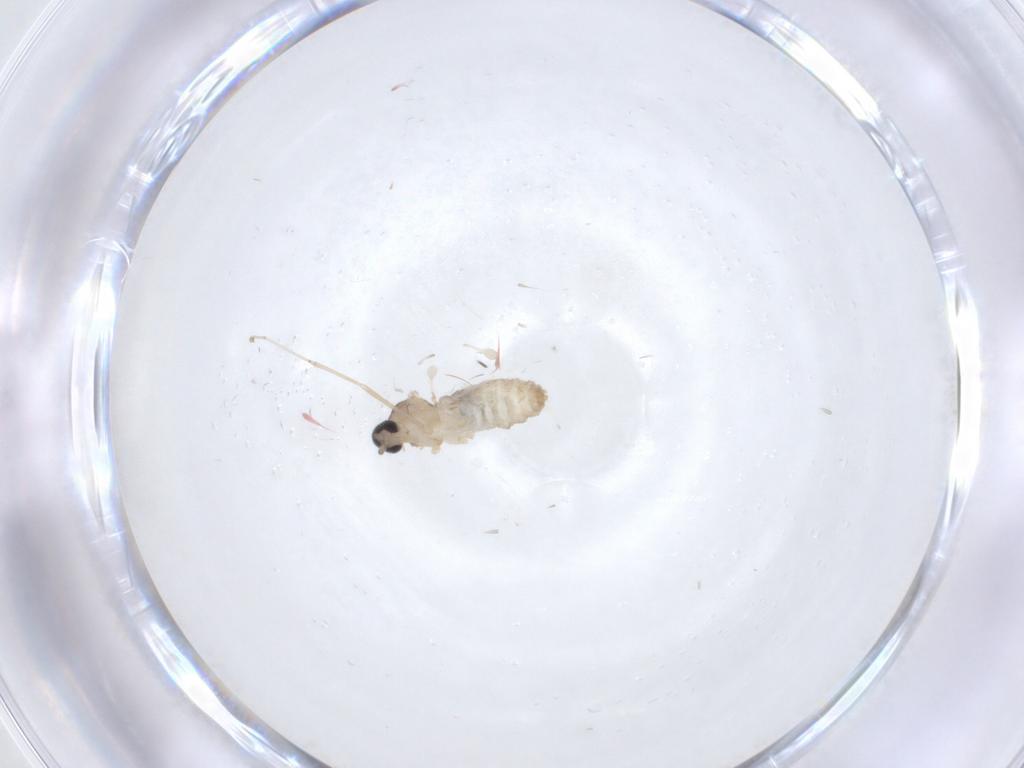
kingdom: Animalia
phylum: Arthropoda
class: Insecta
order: Diptera
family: Cecidomyiidae
